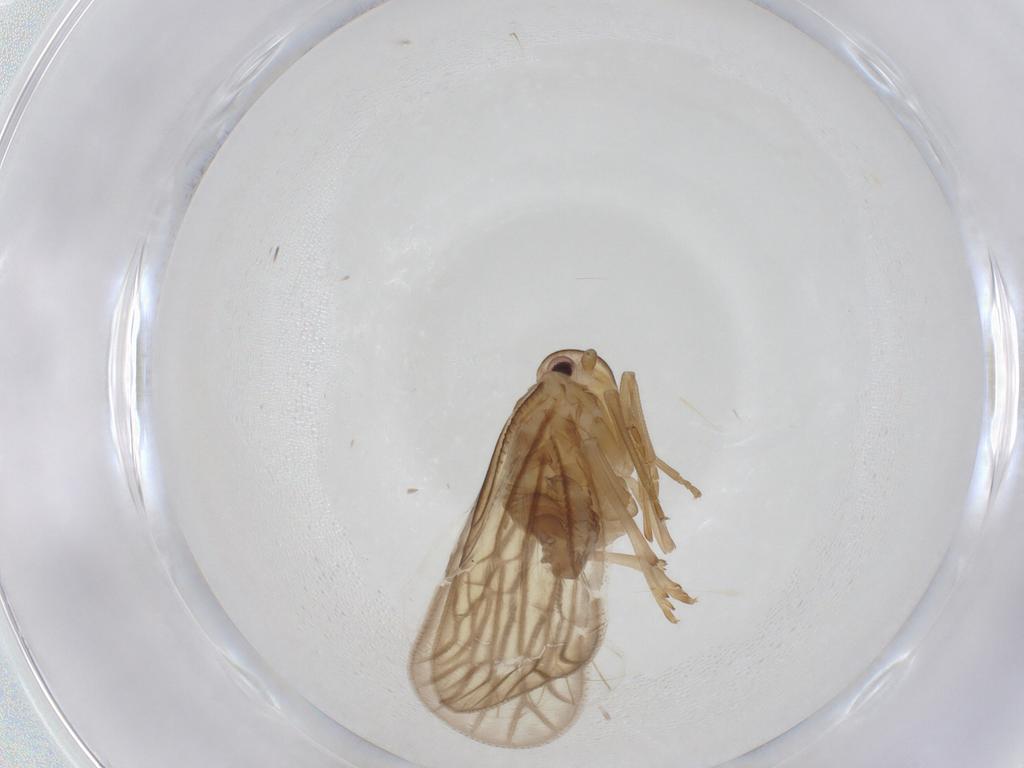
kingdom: Animalia
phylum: Arthropoda
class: Insecta
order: Hemiptera
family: Meenoplidae
